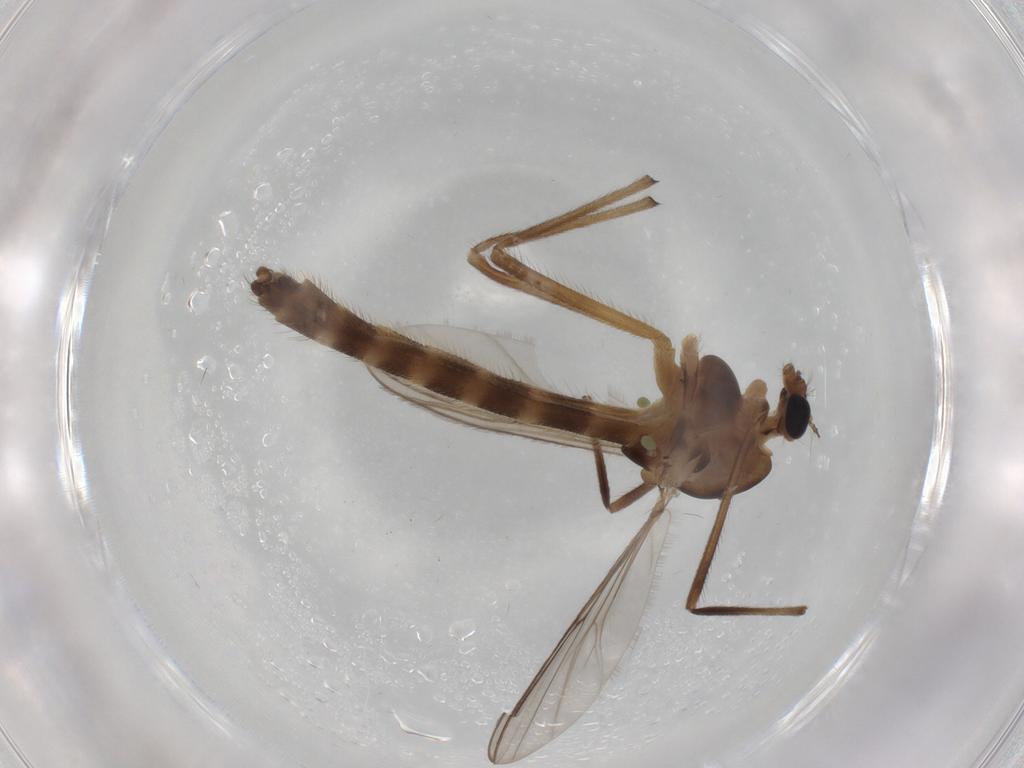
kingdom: Animalia
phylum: Arthropoda
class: Insecta
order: Diptera
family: Cecidomyiidae
